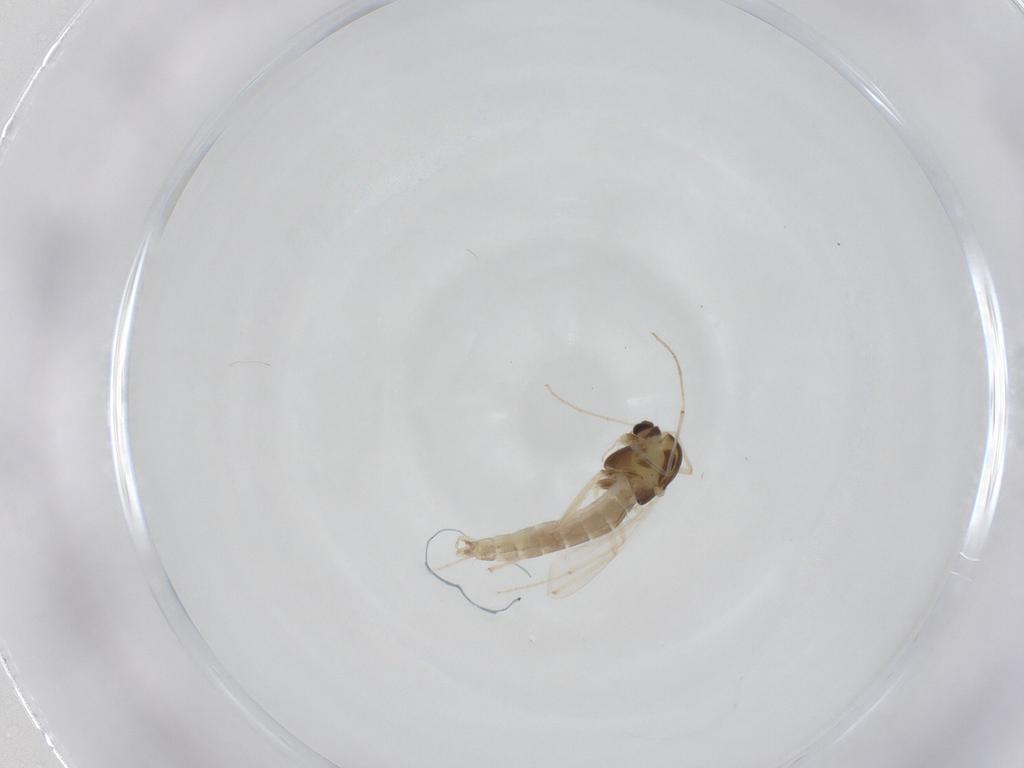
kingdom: Animalia
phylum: Arthropoda
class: Insecta
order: Diptera
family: Chironomidae
